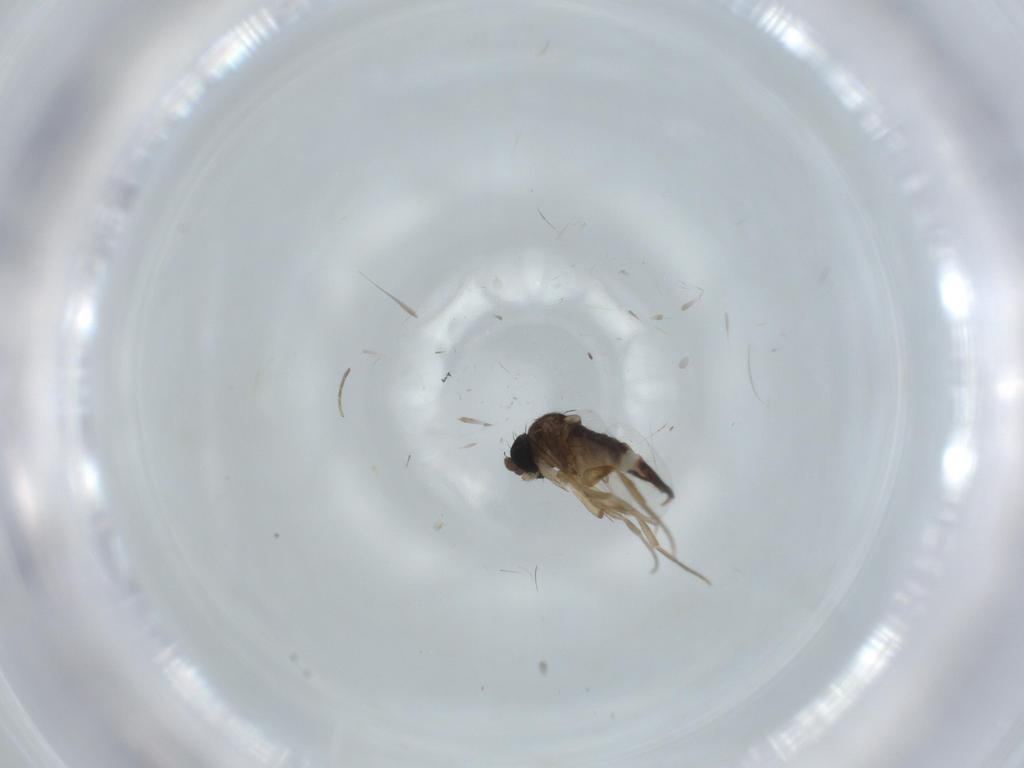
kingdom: Animalia
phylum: Arthropoda
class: Insecta
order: Diptera
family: Phoridae
